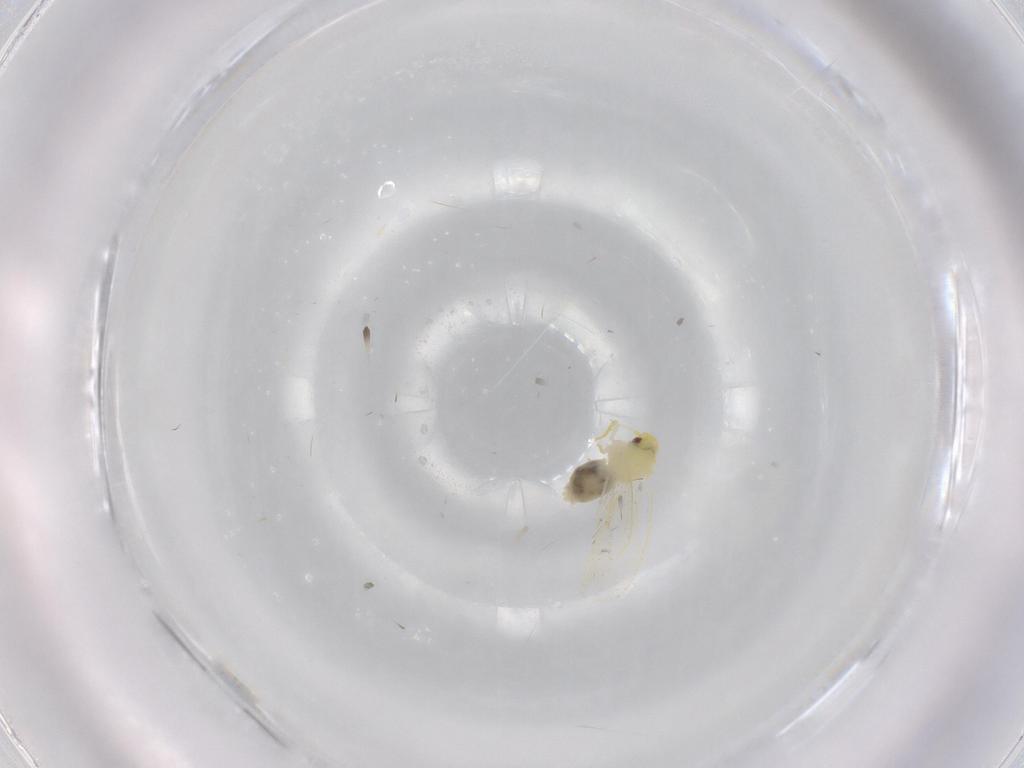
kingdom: Animalia
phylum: Arthropoda
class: Insecta
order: Hemiptera
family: Aleyrodidae
